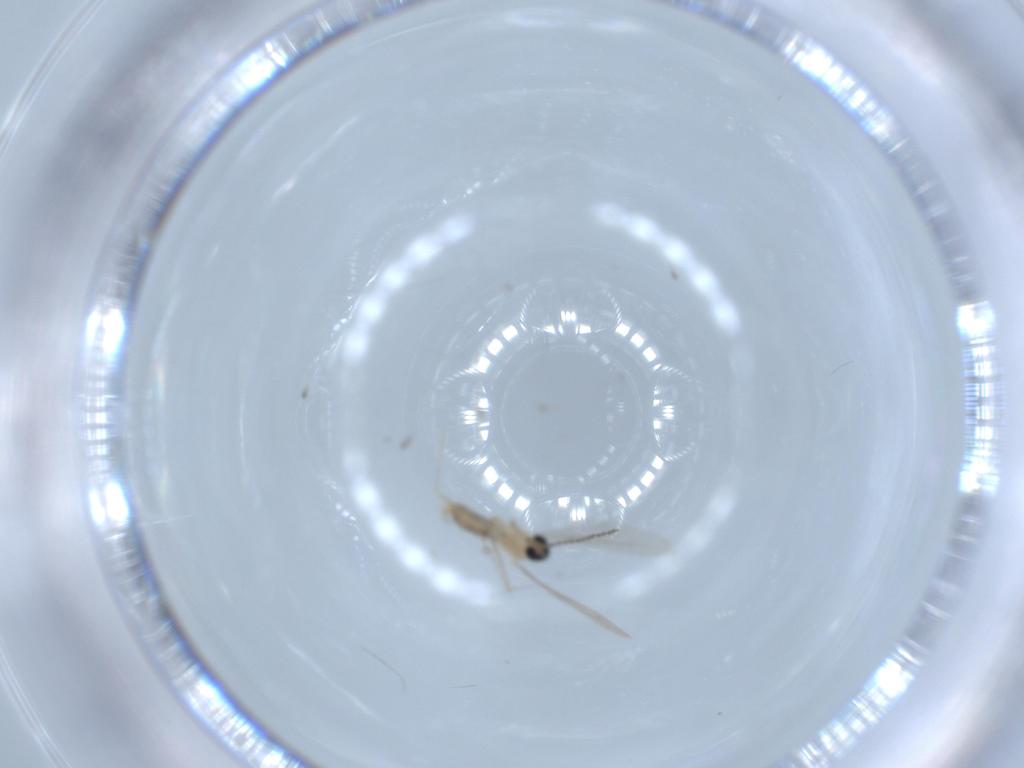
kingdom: Animalia
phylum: Arthropoda
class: Insecta
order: Diptera
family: Cecidomyiidae
